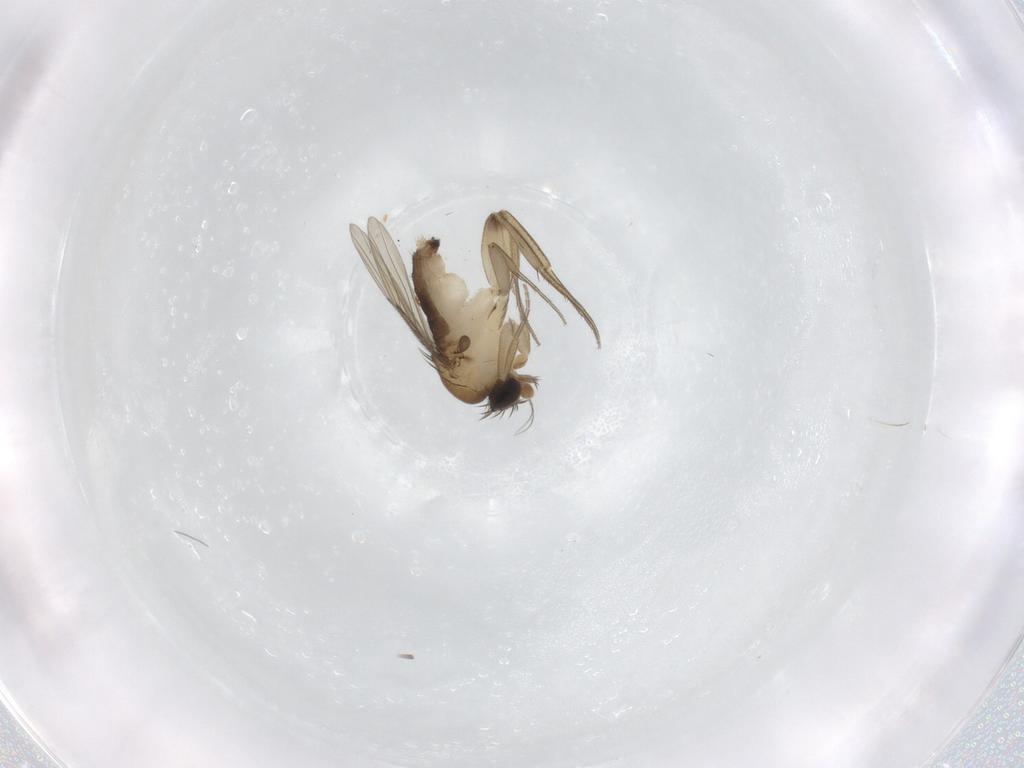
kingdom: Animalia
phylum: Arthropoda
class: Insecta
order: Diptera
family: Phoridae
